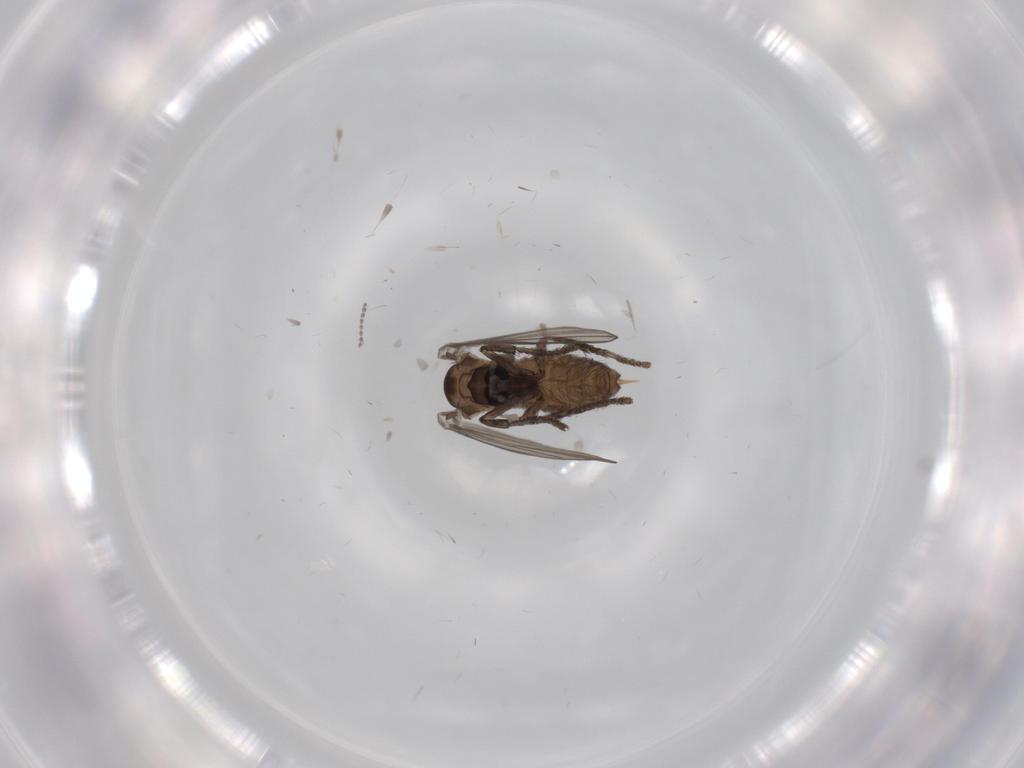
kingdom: Animalia
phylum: Arthropoda
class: Insecta
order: Diptera
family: Psychodidae
